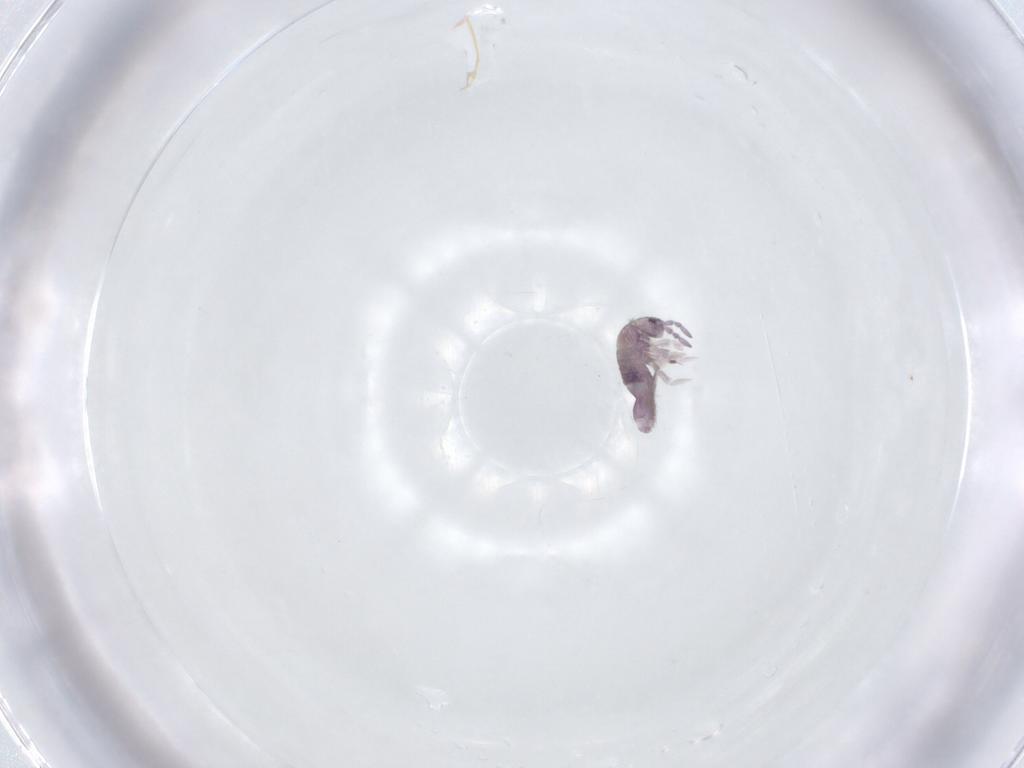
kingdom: Animalia
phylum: Arthropoda
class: Collembola
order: Entomobryomorpha
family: Entomobryidae
